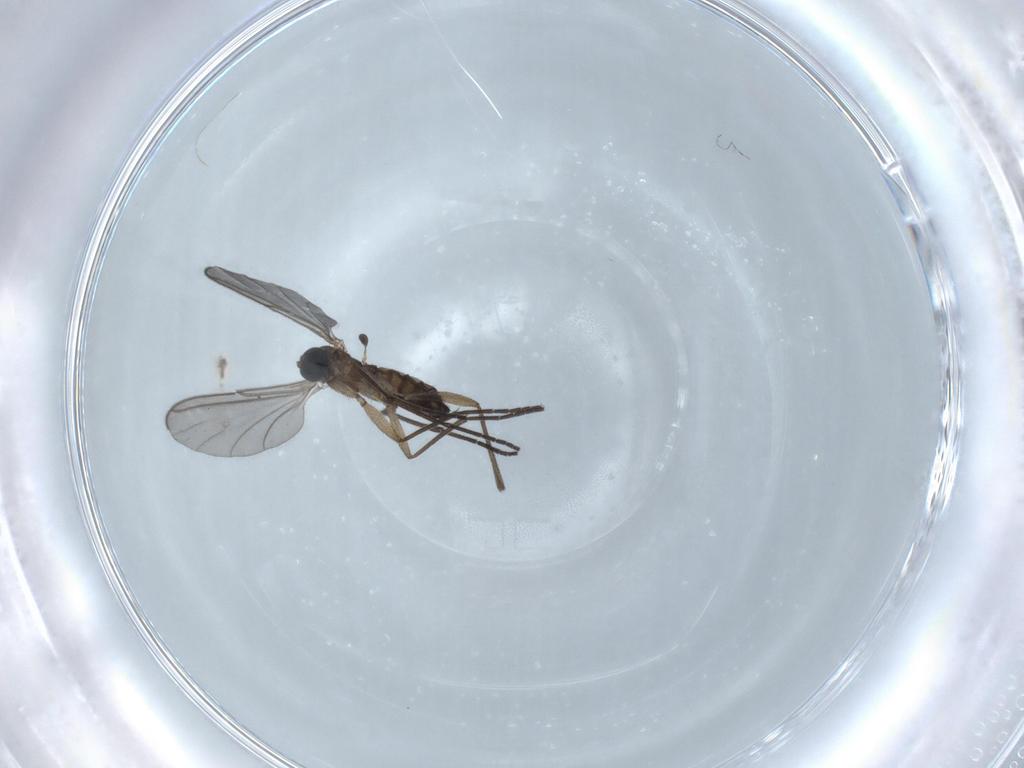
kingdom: Animalia
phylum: Arthropoda
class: Insecta
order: Diptera
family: Sciaridae
